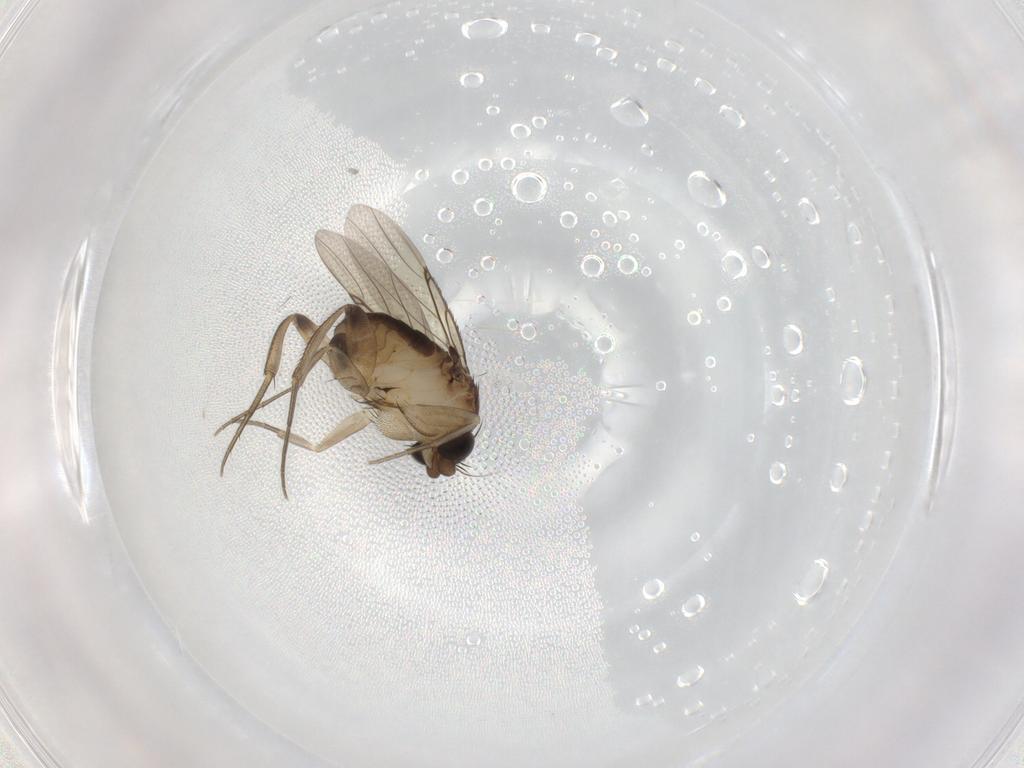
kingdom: Animalia
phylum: Arthropoda
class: Insecta
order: Diptera
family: Phoridae
